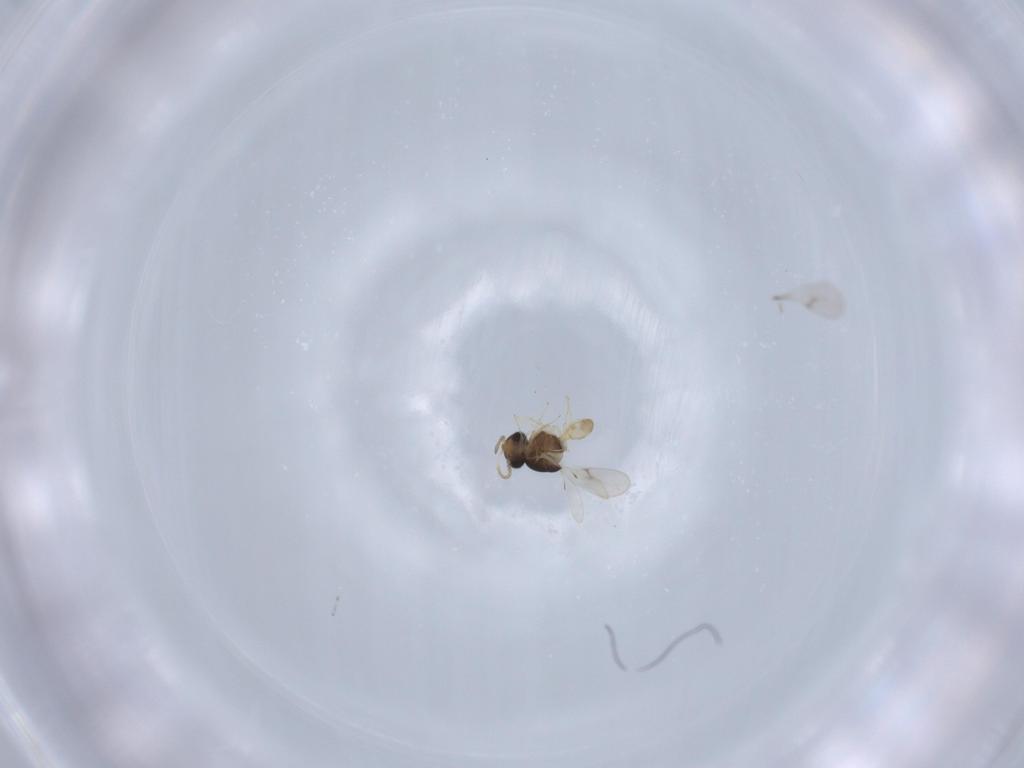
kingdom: Animalia
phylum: Arthropoda
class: Insecta
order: Hymenoptera
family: Scelionidae
